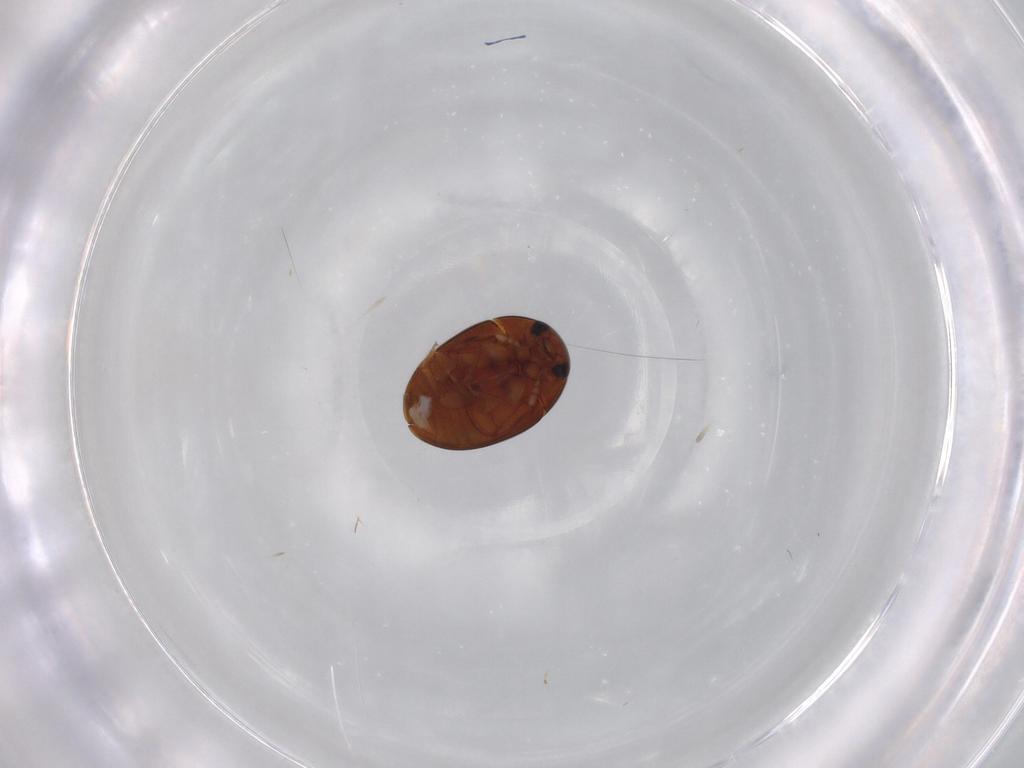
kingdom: Animalia
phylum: Arthropoda
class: Insecta
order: Coleoptera
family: Phalacridae
